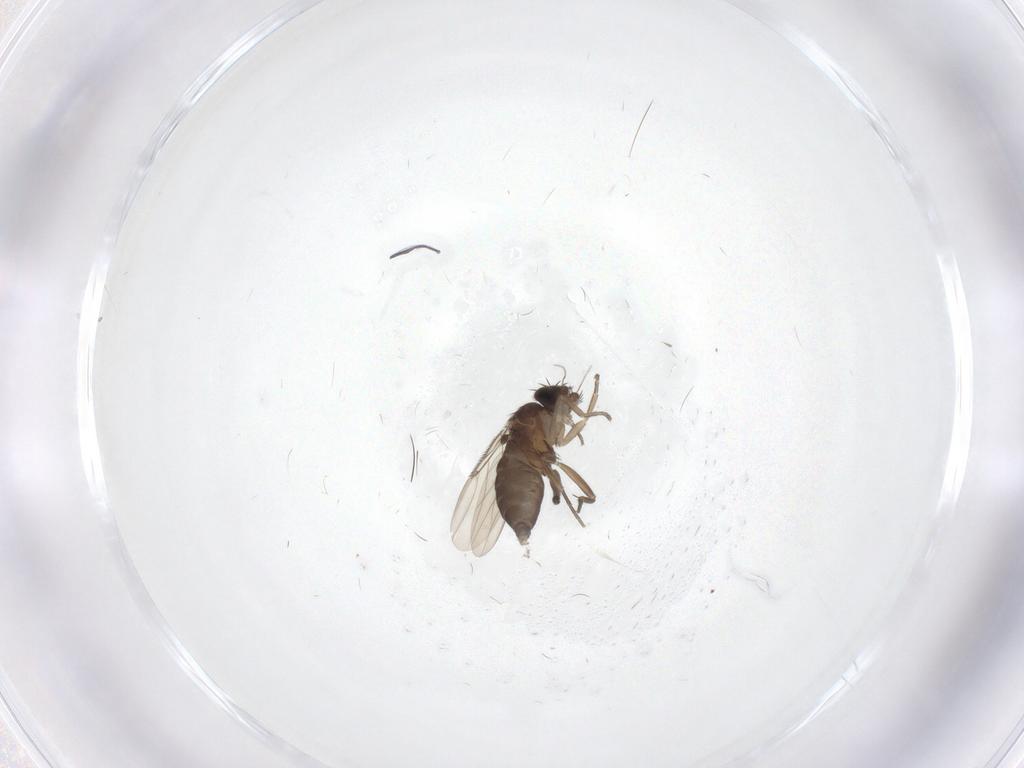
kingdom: Animalia
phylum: Arthropoda
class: Insecta
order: Diptera
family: Phoridae
